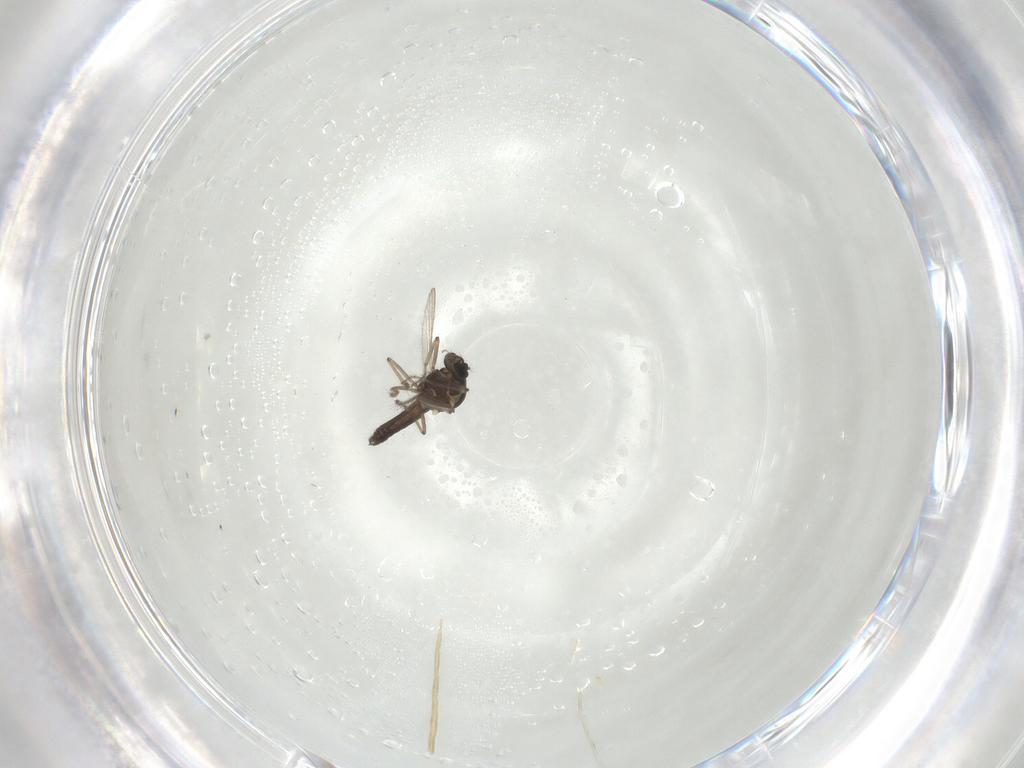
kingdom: Animalia
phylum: Arthropoda
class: Insecta
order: Diptera
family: Ceratopogonidae
